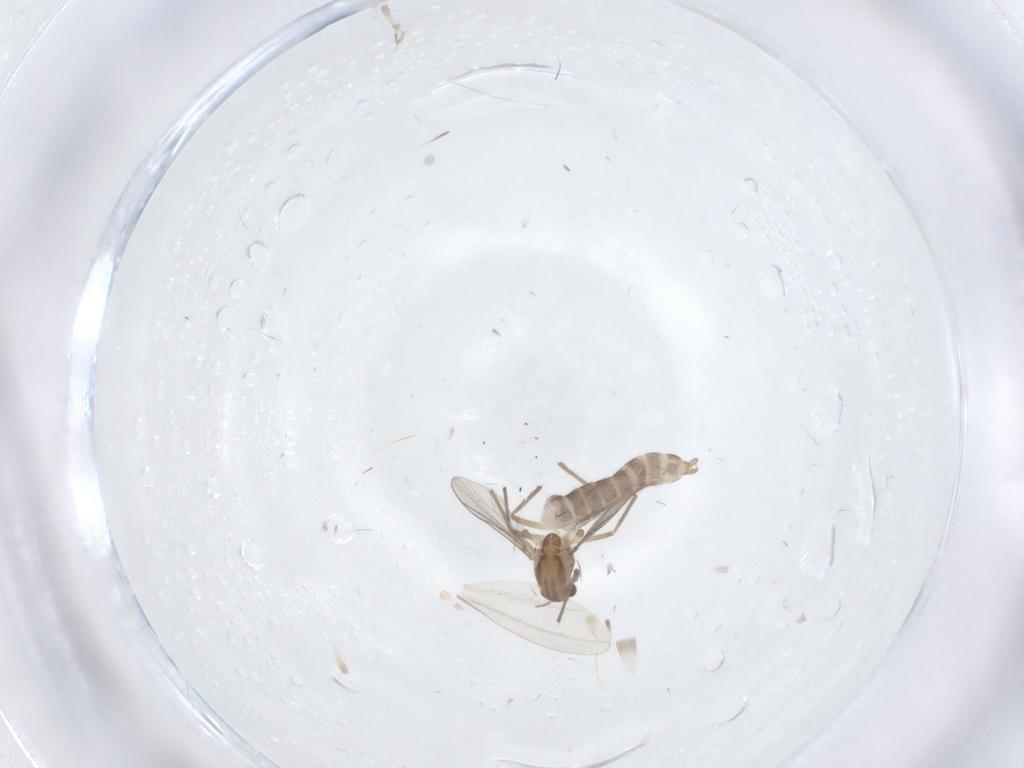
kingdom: Animalia
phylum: Arthropoda
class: Insecta
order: Diptera
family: Chironomidae
